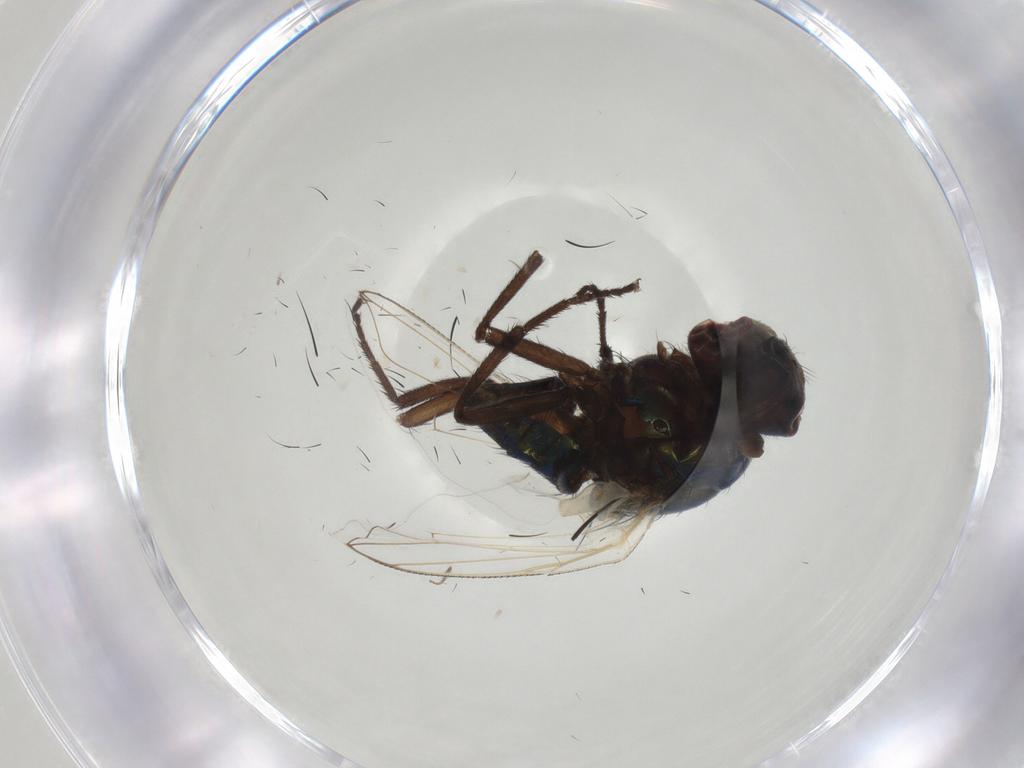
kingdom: Animalia
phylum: Arthropoda
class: Insecta
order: Diptera
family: Muscidae
